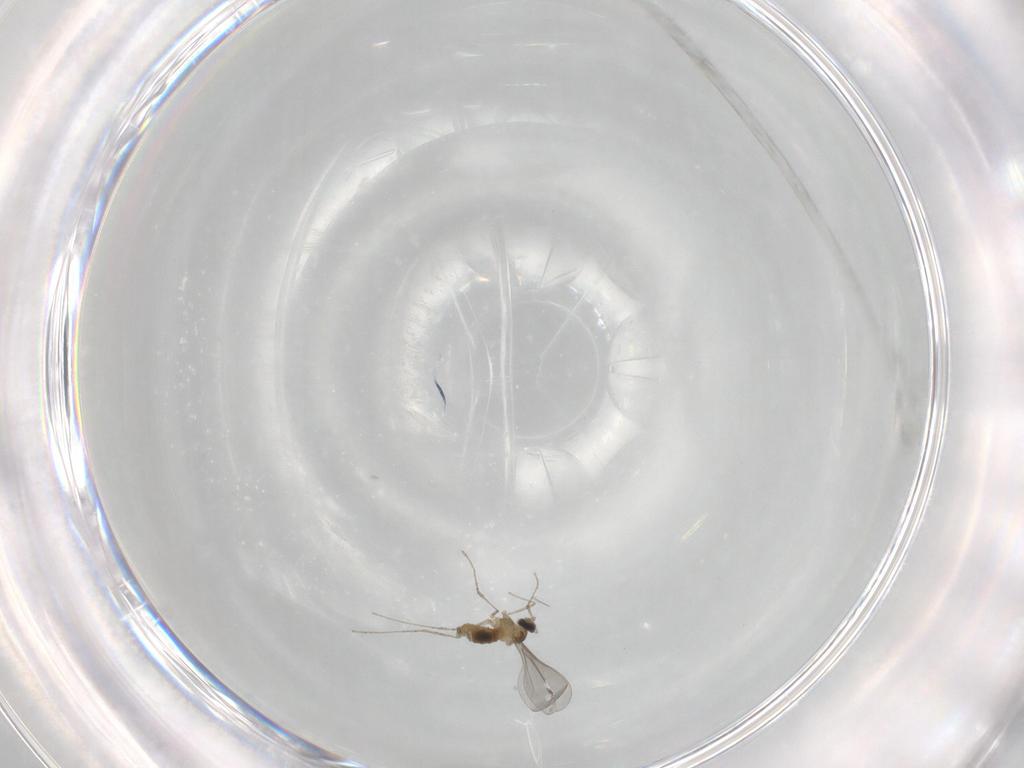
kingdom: Animalia
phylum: Arthropoda
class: Insecta
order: Diptera
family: Phoridae
